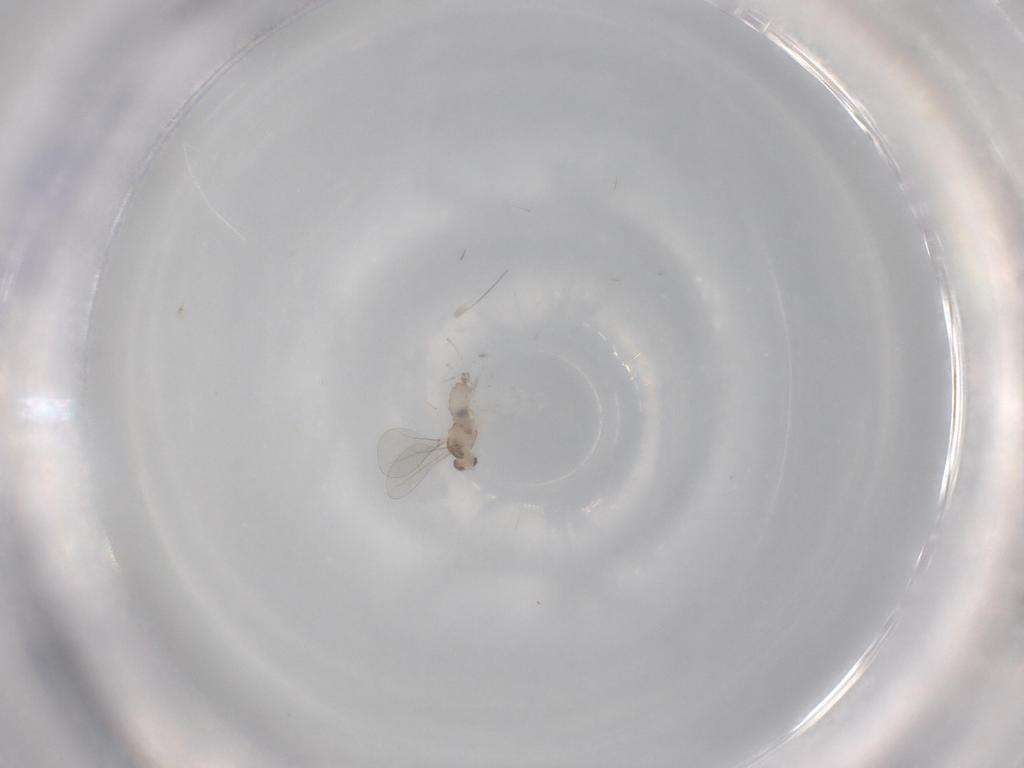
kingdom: Animalia
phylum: Arthropoda
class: Insecta
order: Diptera
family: Cecidomyiidae
